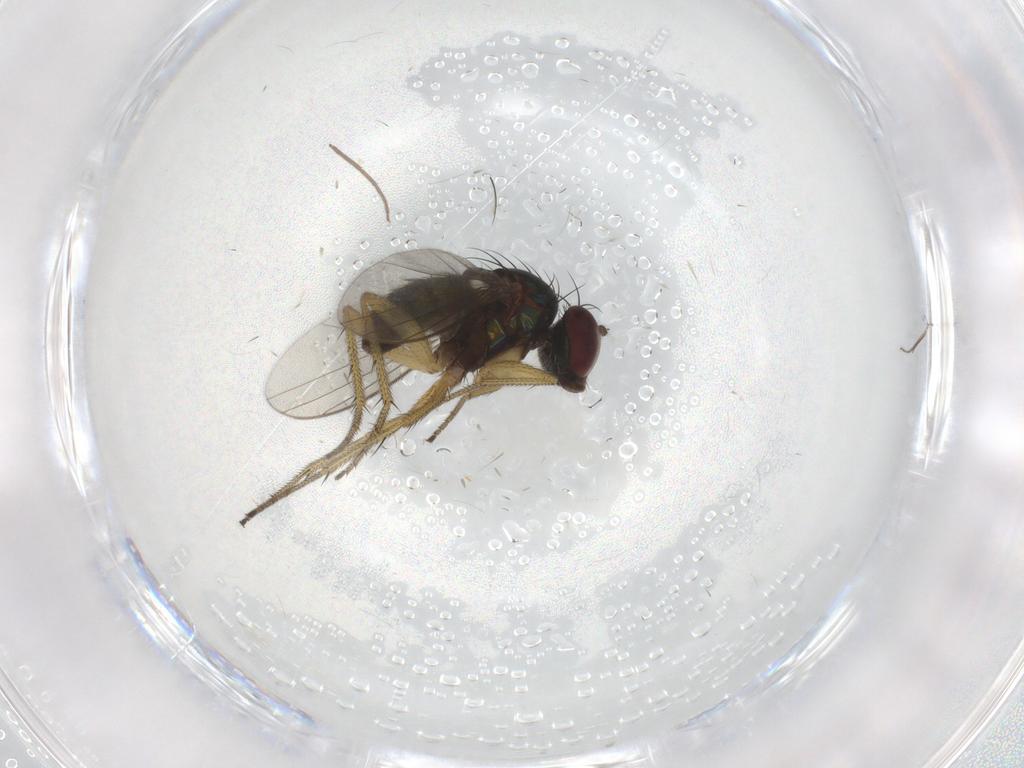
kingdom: Animalia
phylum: Arthropoda
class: Insecta
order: Diptera
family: Dolichopodidae
